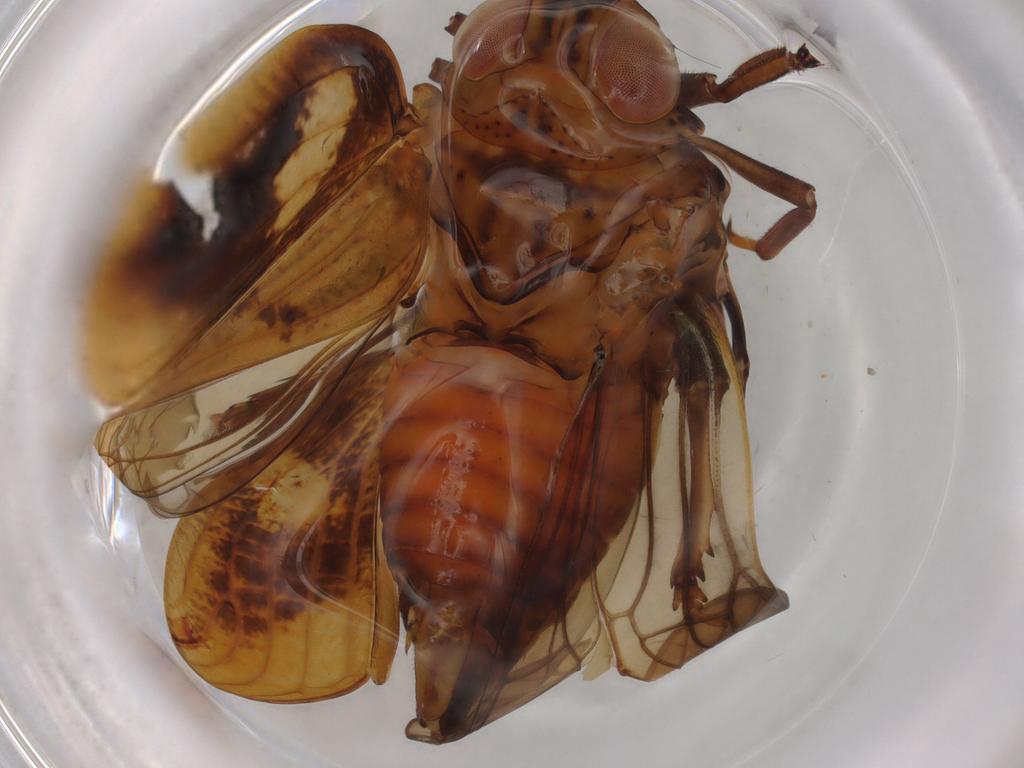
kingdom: Animalia
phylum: Arthropoda
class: Insecta
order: Hemiptera
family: Issidae
